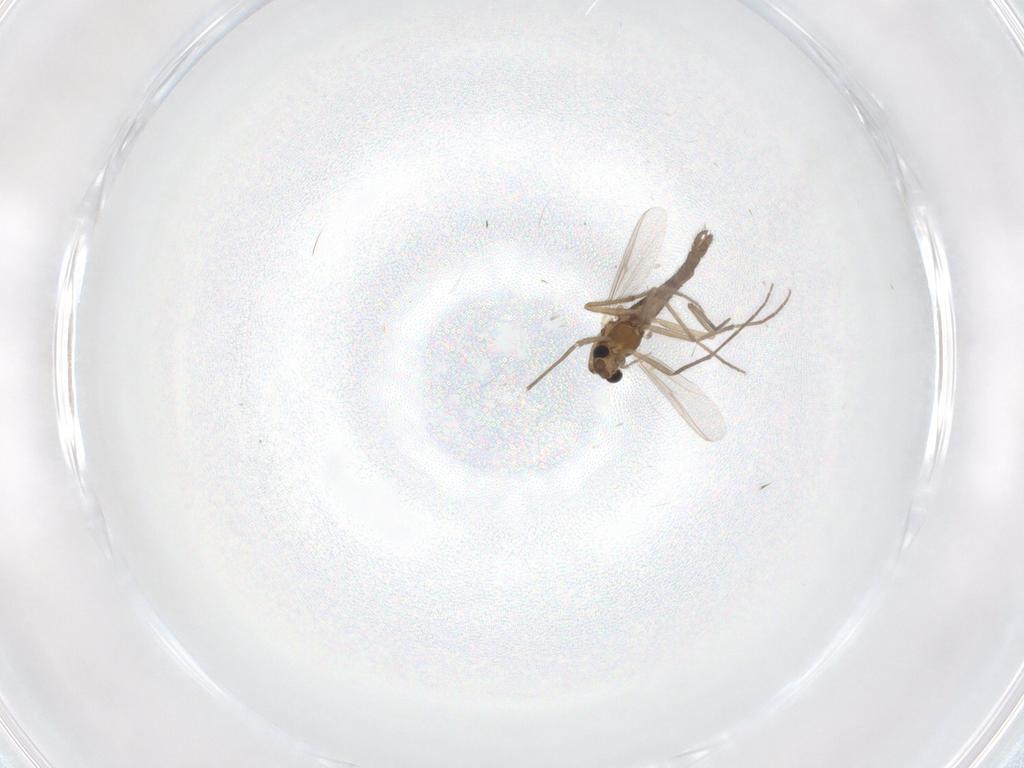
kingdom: Animalia
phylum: Arthropoda
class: Insecta
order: Diptera
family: Chironomidae
